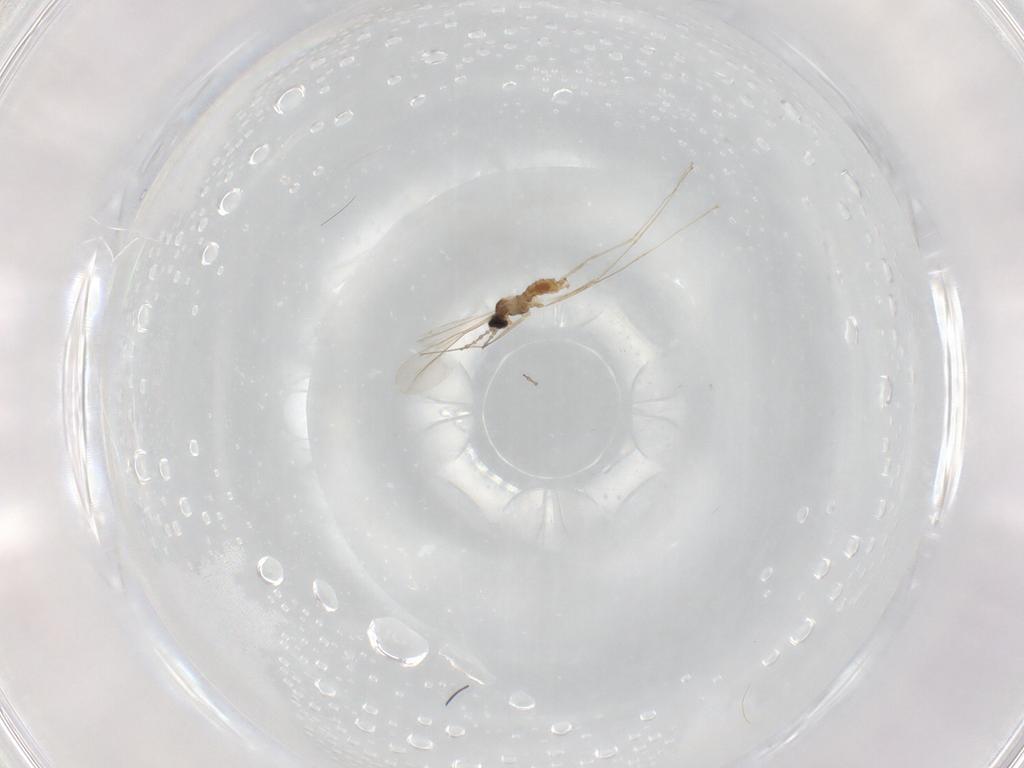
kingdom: Animalia
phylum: Arthropoda
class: Insecta
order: Diptera
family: Cecidomyiidae
